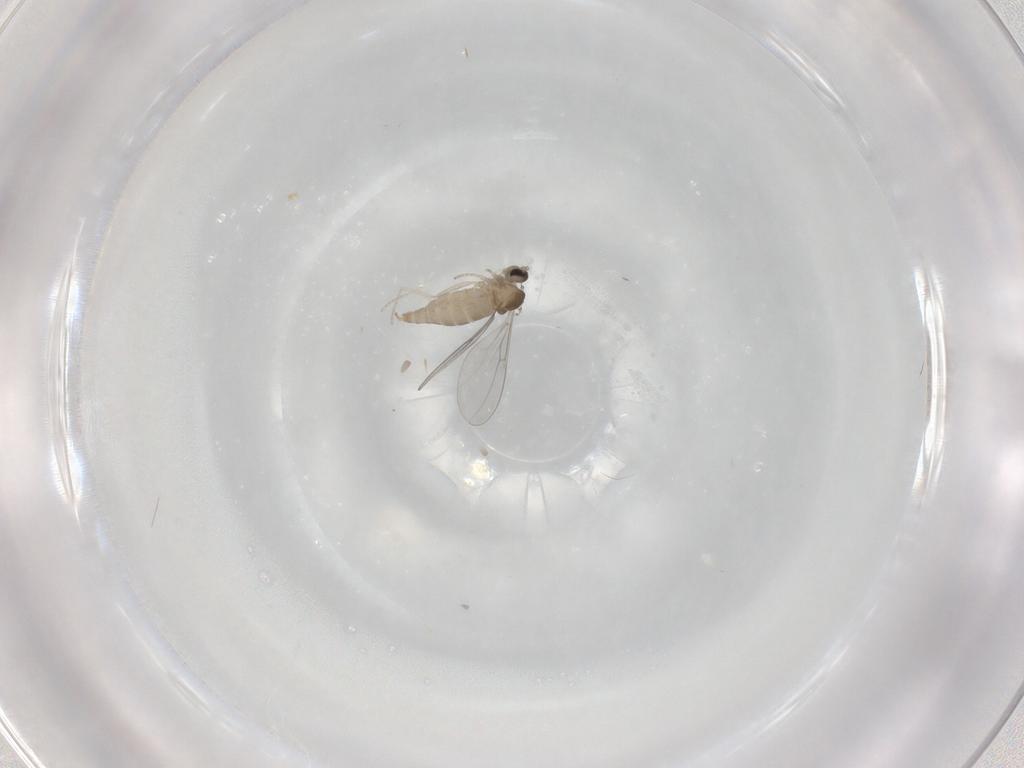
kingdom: Animalia
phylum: Arthropoda
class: Insecta
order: Diptera
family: Cecidomyiidae
